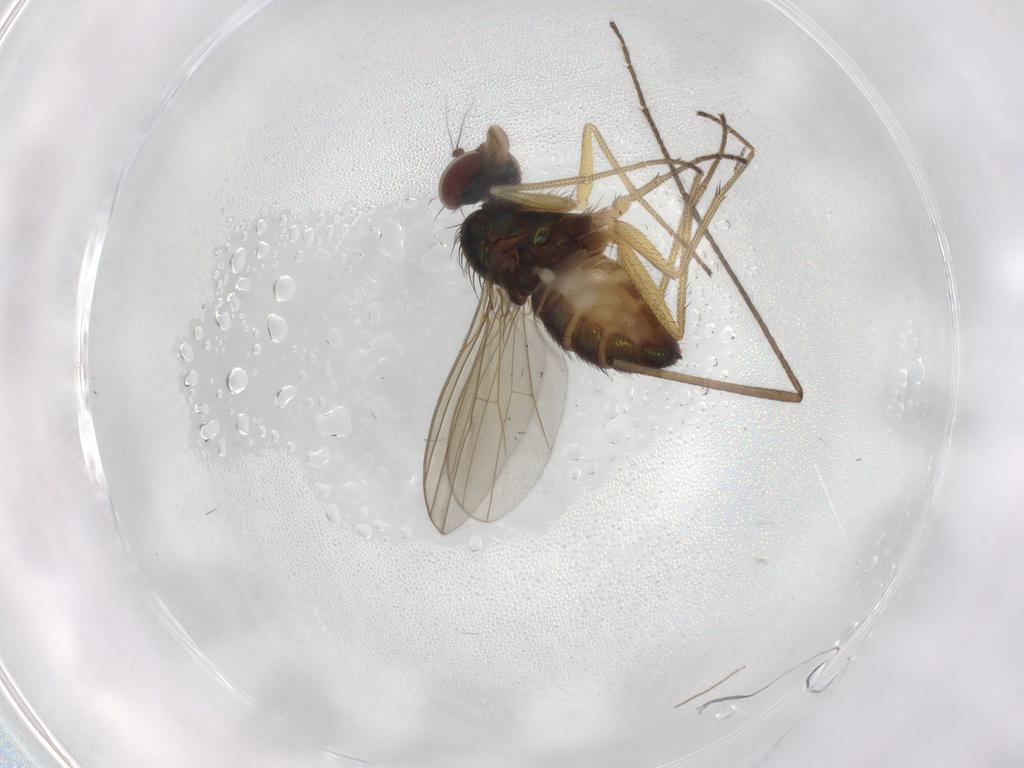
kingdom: Animalia
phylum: Arthropoda
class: Insecta
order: Diptera
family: Dolichopodidae
